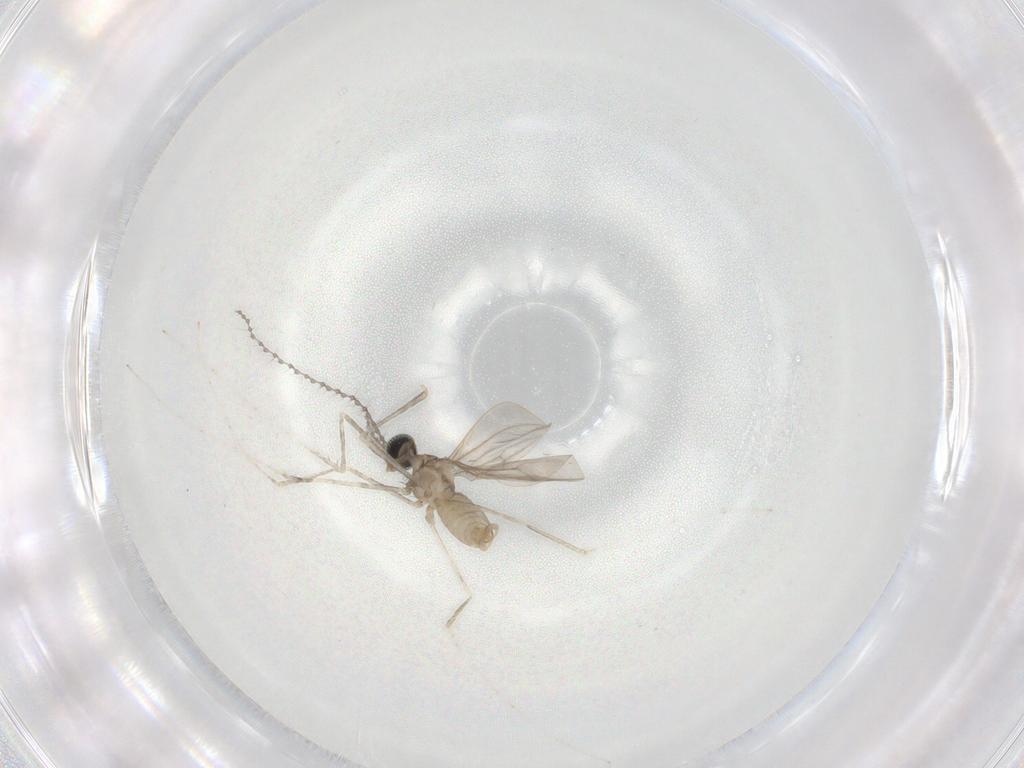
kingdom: Animalia
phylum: Arthropoda
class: Insecta
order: Diptera
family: Cecidomyiidae
